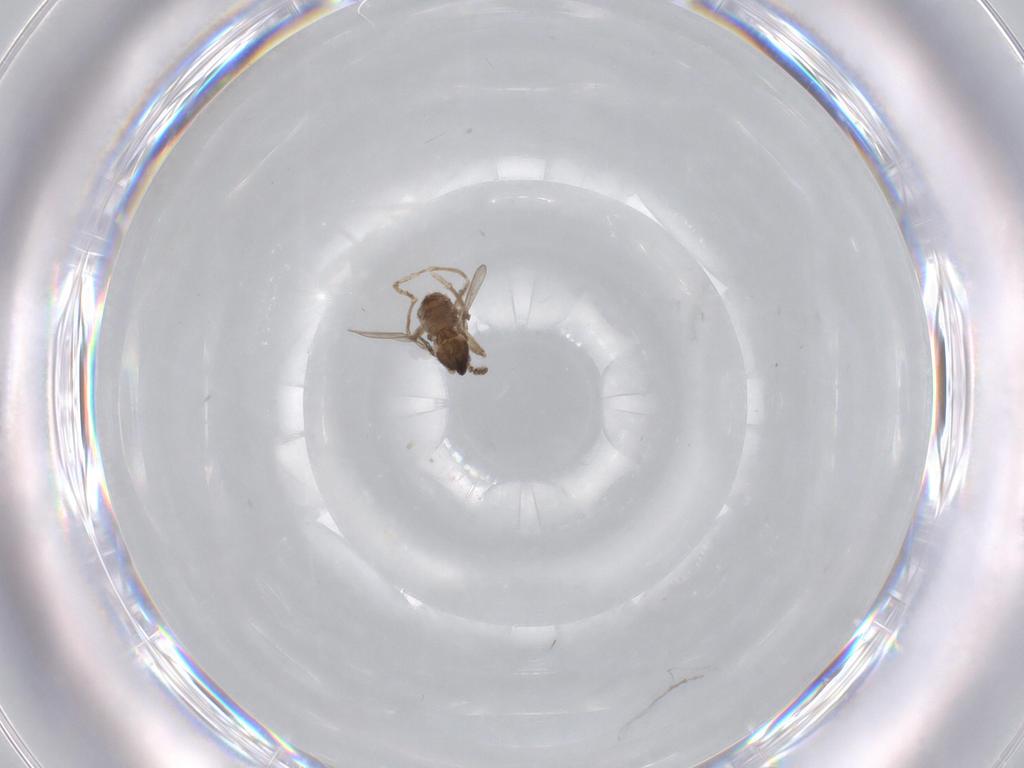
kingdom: Animalia
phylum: Arthropoda
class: Insecta
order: Diptera
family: Cecidomyiidae
